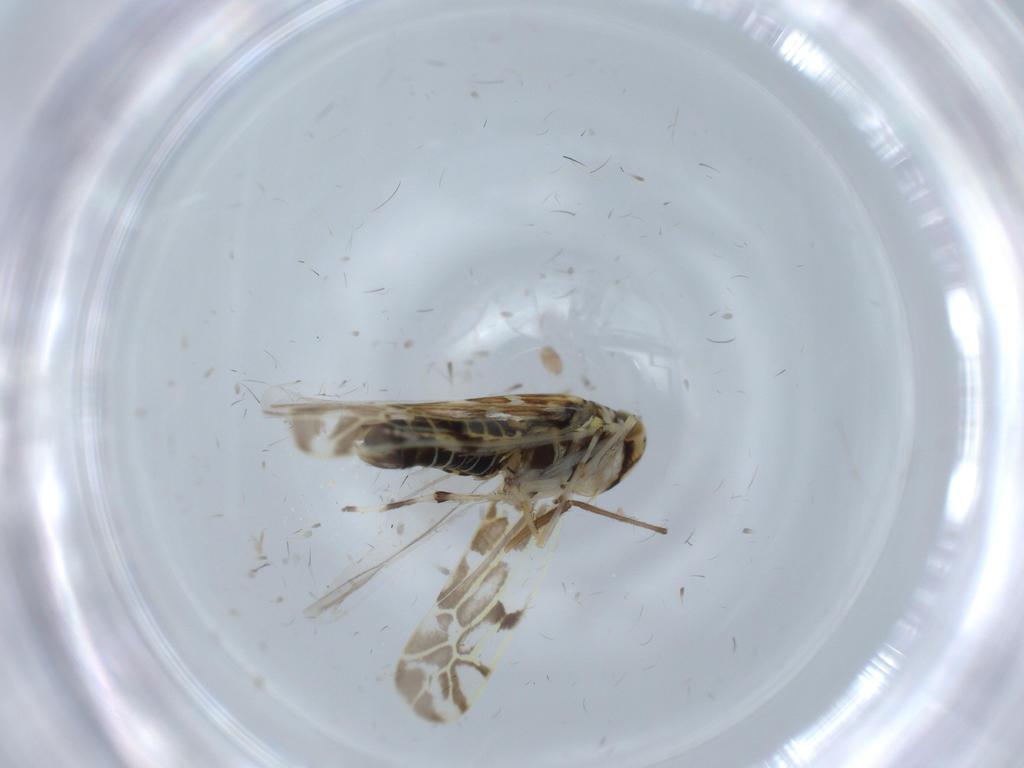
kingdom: Animalia
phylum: Arthropoda
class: Insecta
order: Hemiptera
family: Cicadellidae
